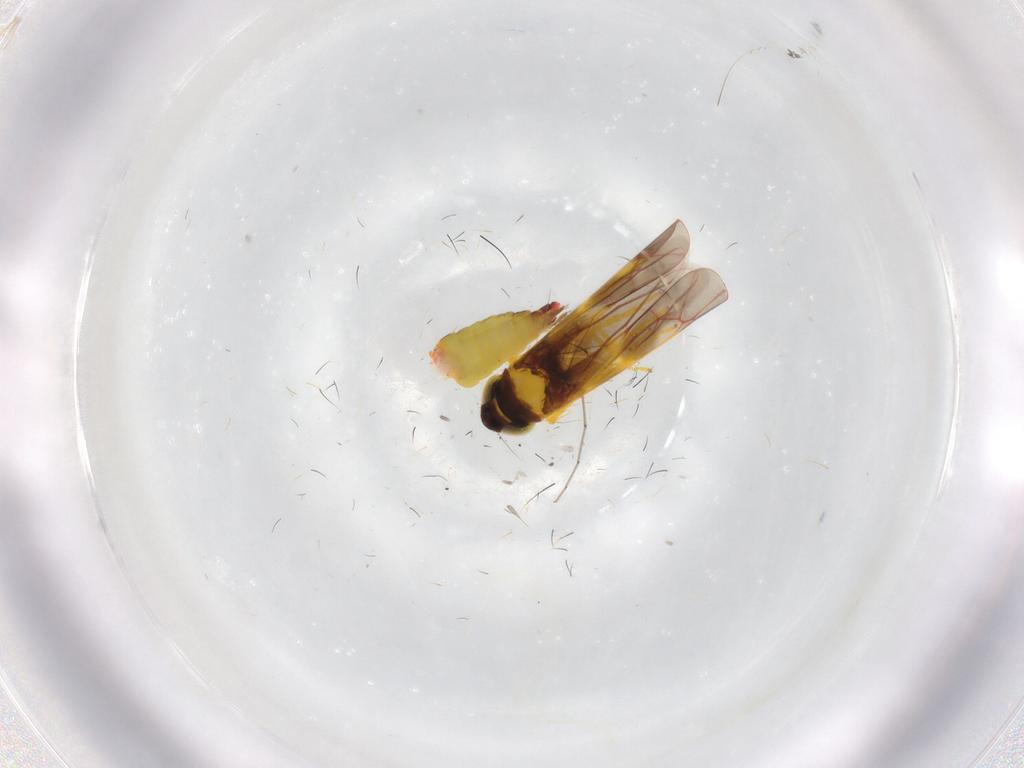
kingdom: Animalia
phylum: Arthropoda
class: Insecta
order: Hemiptera
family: Cicadellidae
